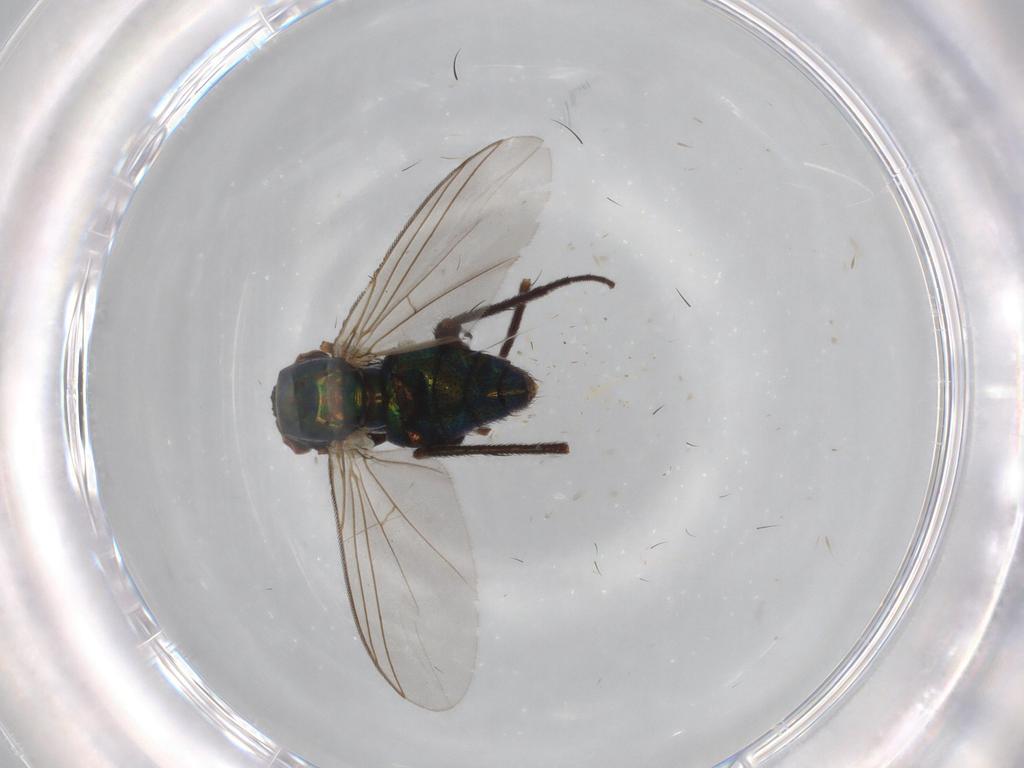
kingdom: Animalia
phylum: Arthropoda
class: Insecta
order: Diptera
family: Dolichopodidae
